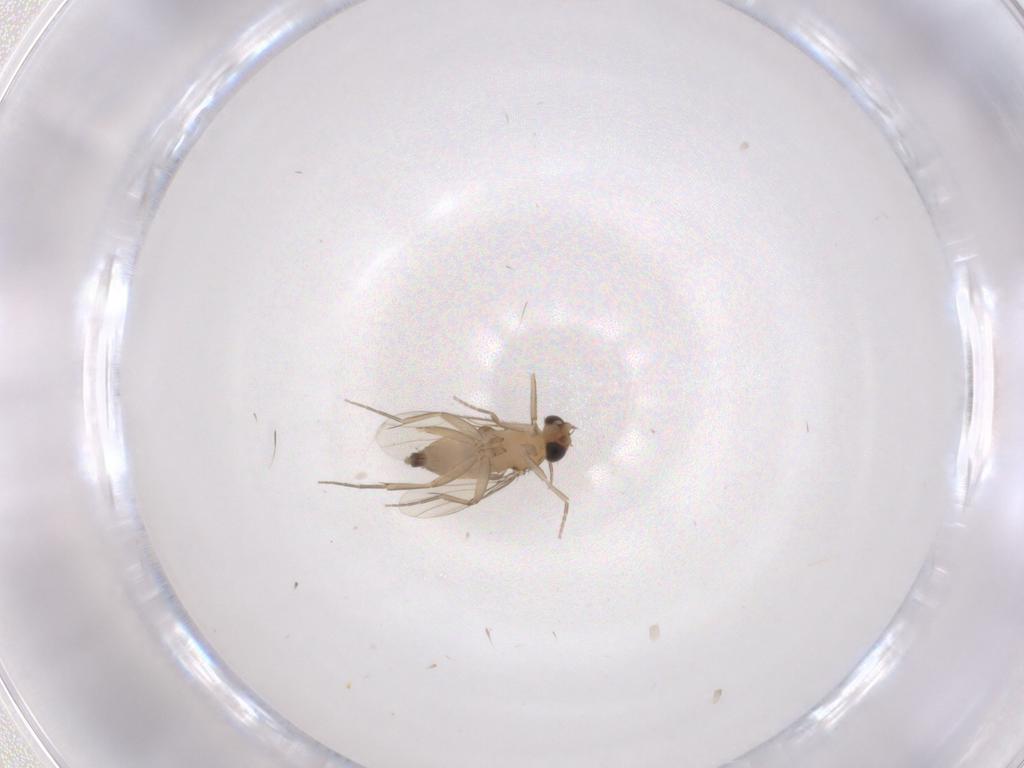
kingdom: Animalia
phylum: Arthropoda
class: Insecta
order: Diptera
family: Phoridae
